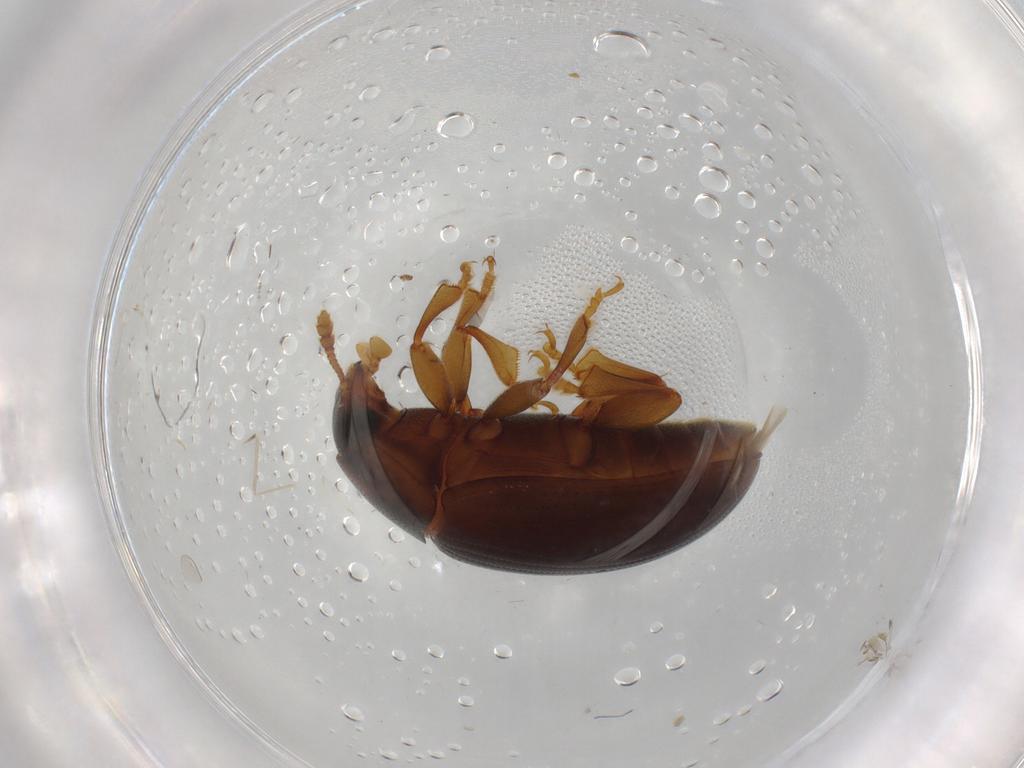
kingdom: Animalia
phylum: Arthropoda
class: Insecta
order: Coleoptera
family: Erotylidae
